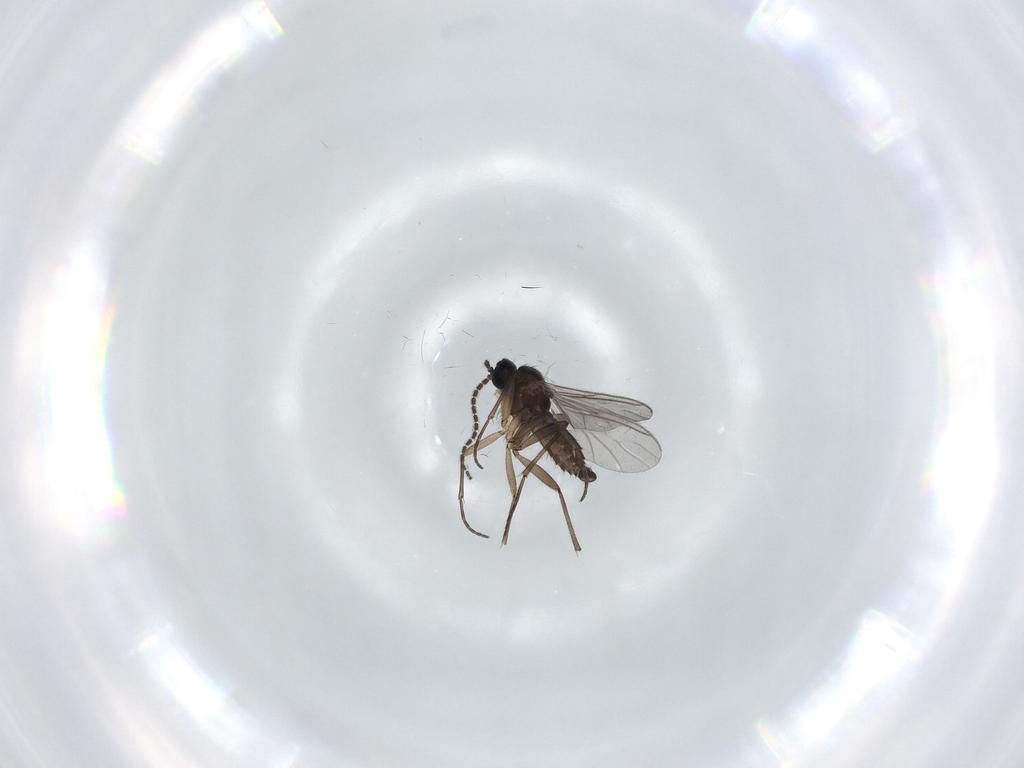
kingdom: Animalia
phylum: Arthropoda
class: Insecta
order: Diptera
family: Sciaridae
